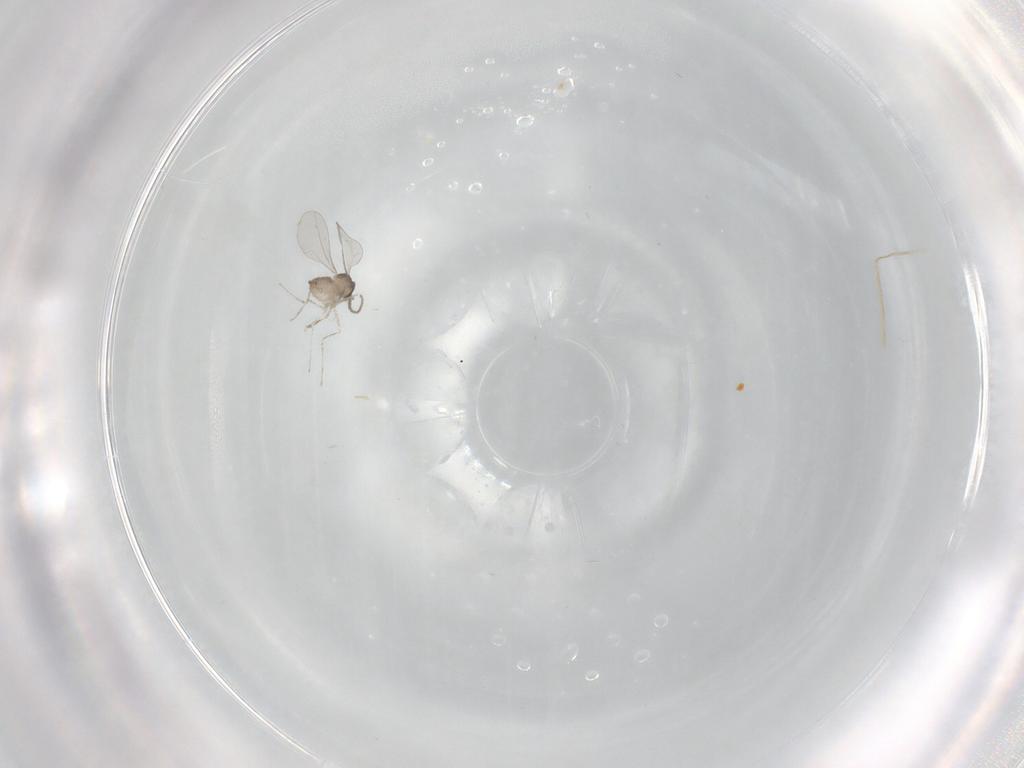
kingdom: Animalia
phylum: Arthropoda
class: Insecta
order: Diptera
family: Cecidomyiidae
